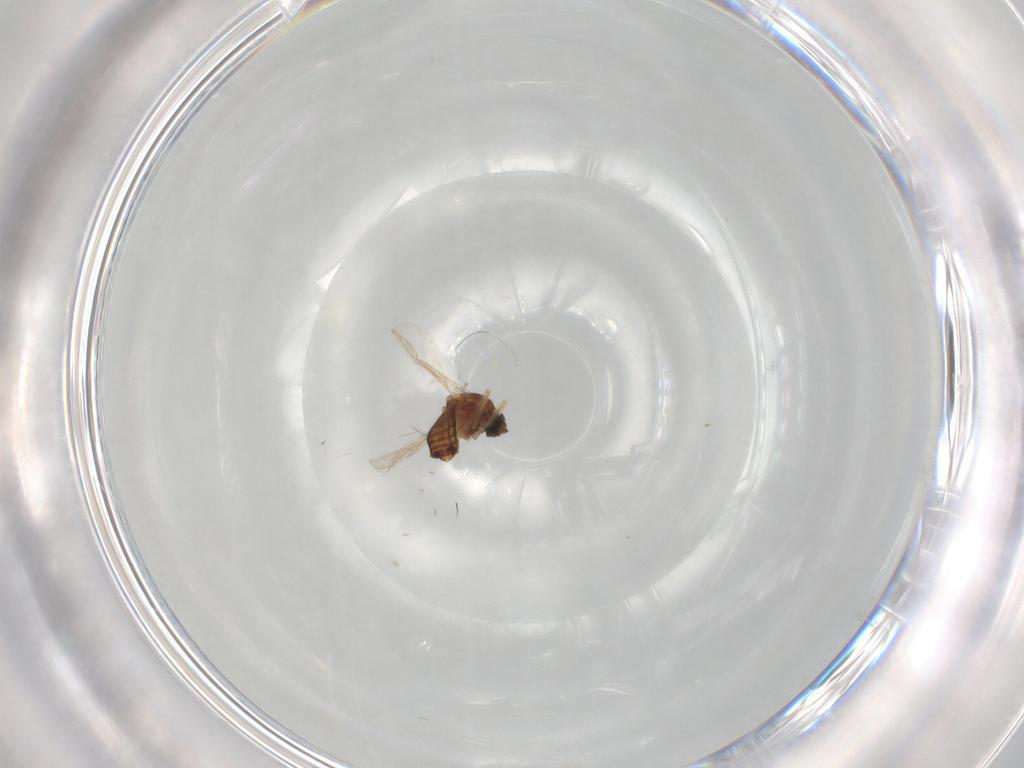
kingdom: Animalia
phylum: Arthropoda
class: Insecta
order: Diptera
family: Ceratopogonidae
